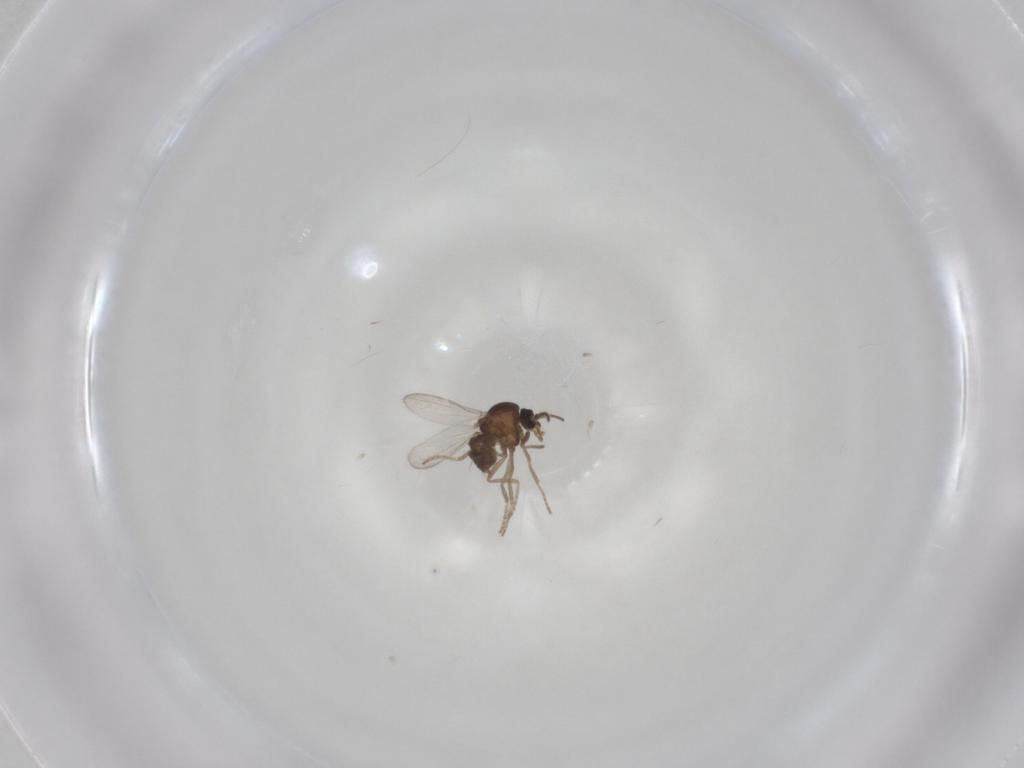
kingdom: Animalia
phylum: Arthropoda
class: Insecta
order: Diptera
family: Ceratopogonidae
